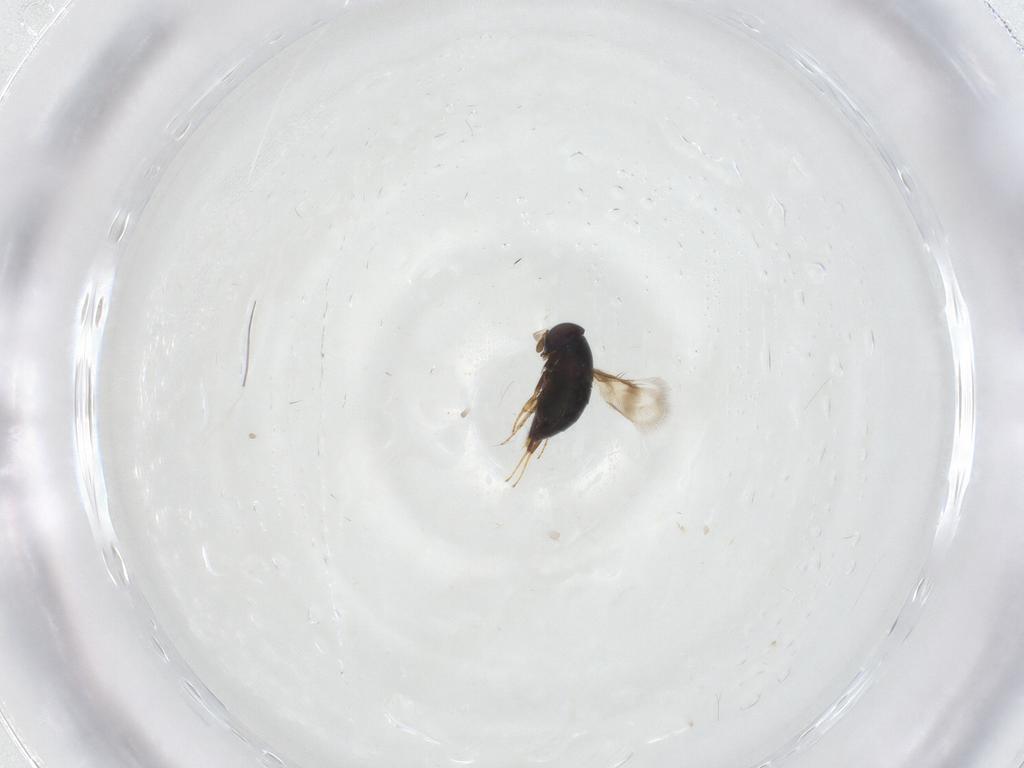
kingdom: Animalia
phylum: Arthropoda
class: Insecta
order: Hymenoptera
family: Signiphoridae
